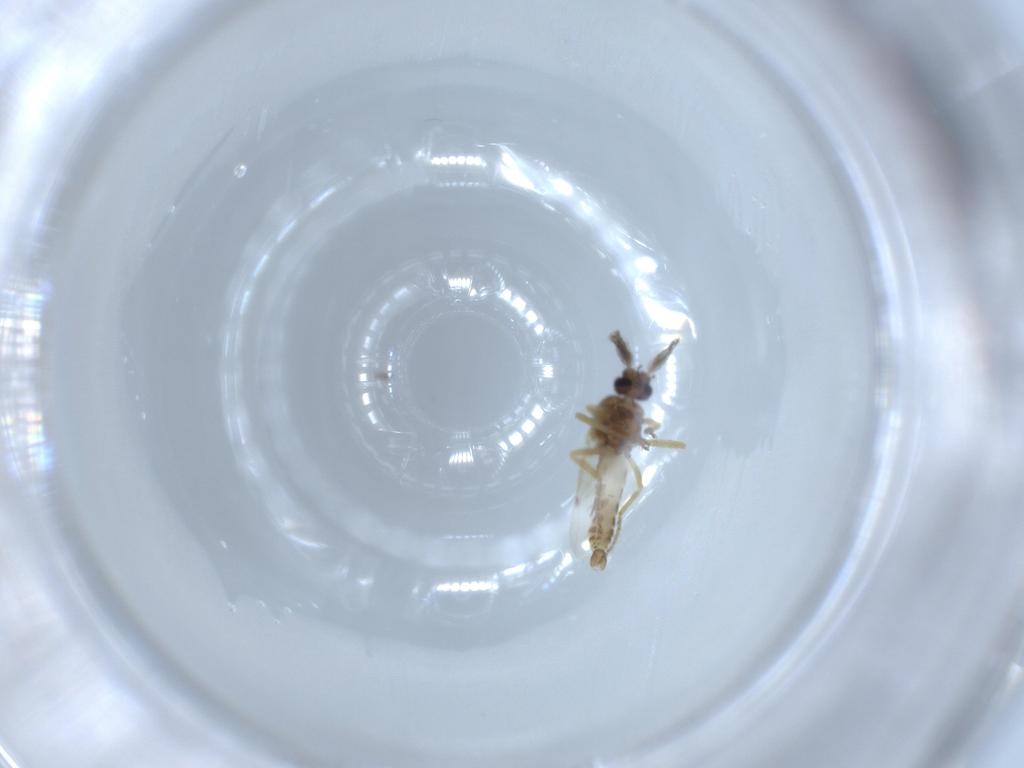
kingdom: Animalia
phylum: Arthropoda
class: Insecta
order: Diptera
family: Ceratopogonidae
